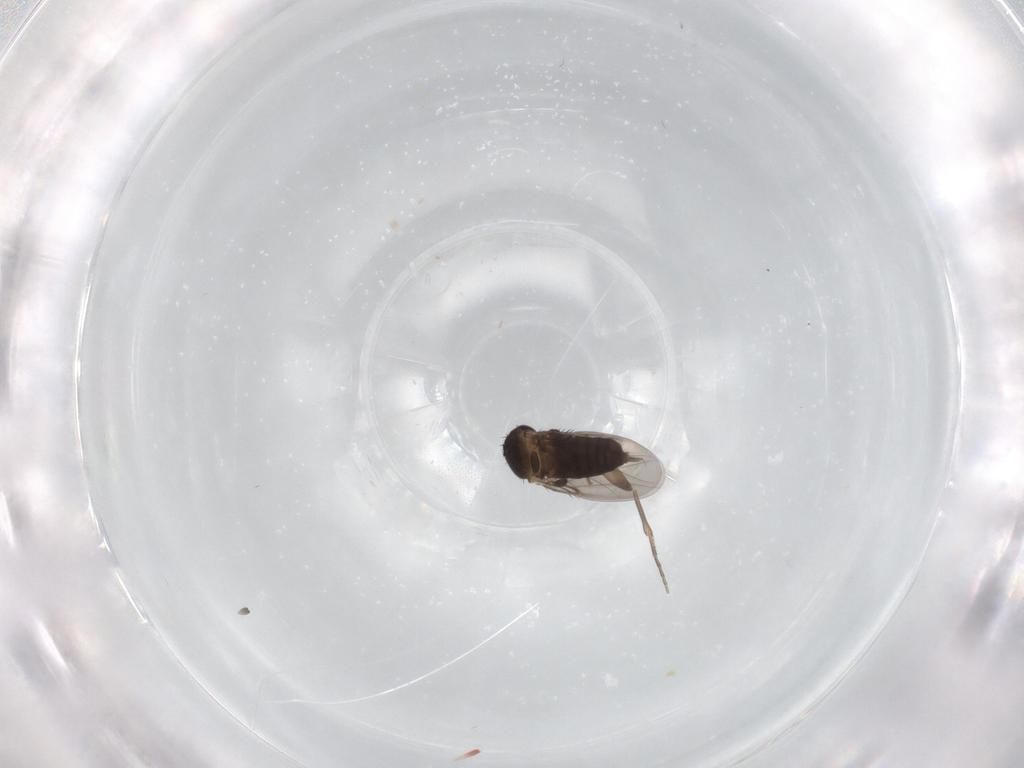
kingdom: Animalia
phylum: Arthropoda
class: Insecta
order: Diptera
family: Phoridae
